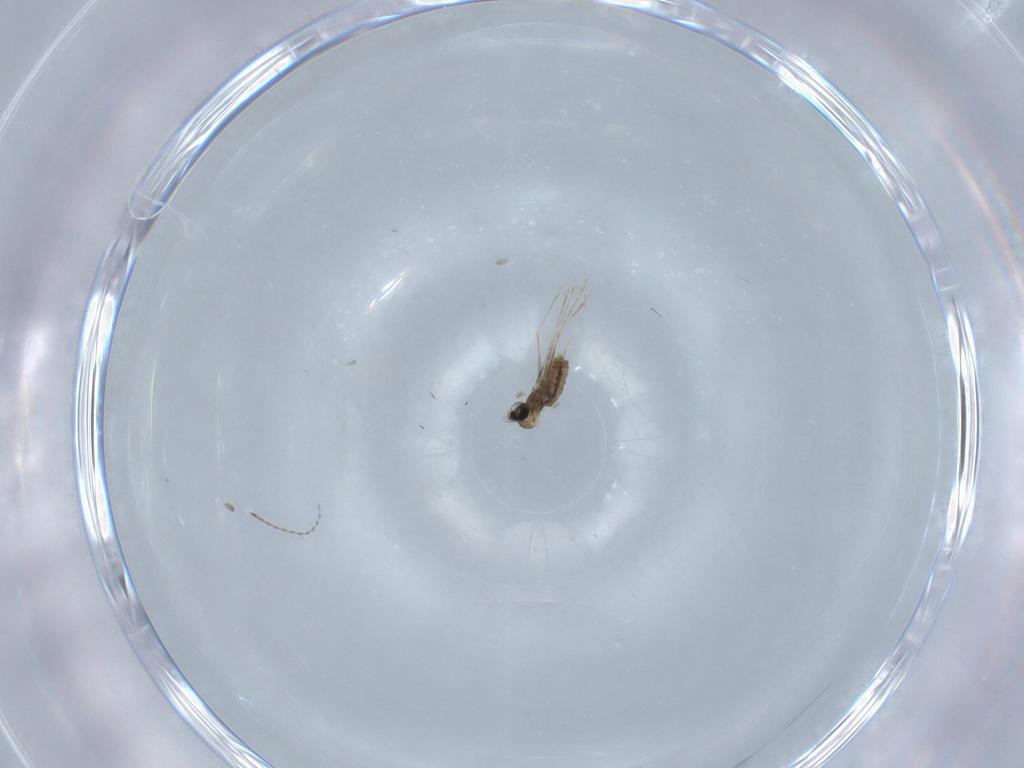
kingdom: Animalia
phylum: Arthropoda
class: Insecta
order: Diptera
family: Cecidomyiidae
